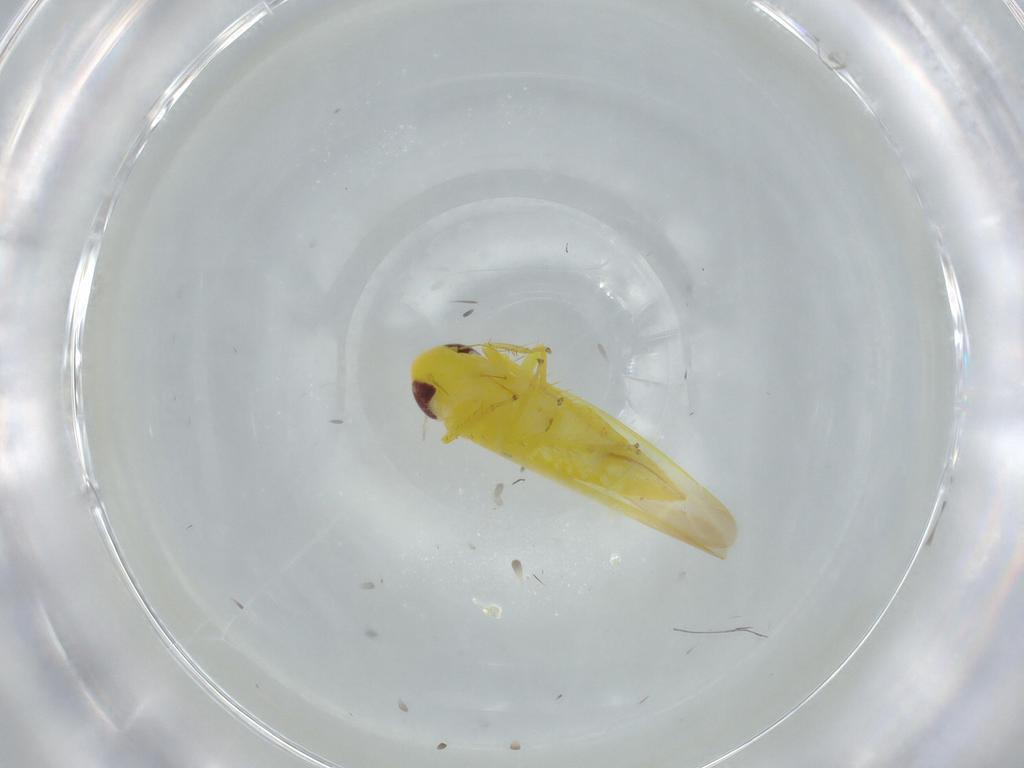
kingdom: Animalia
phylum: Arthropoda
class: Insecta
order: Hemiptera
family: Cicadellidae
